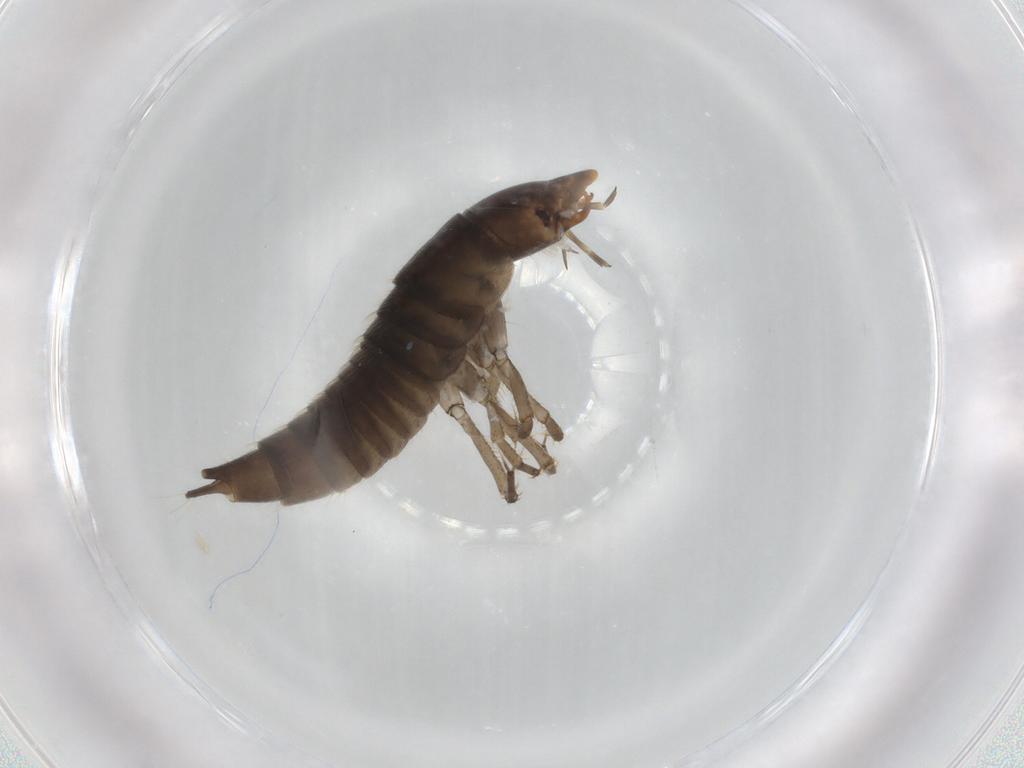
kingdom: Animalia
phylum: Arthropoda
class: Insecta
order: Coleoptera
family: Dytiscidae
